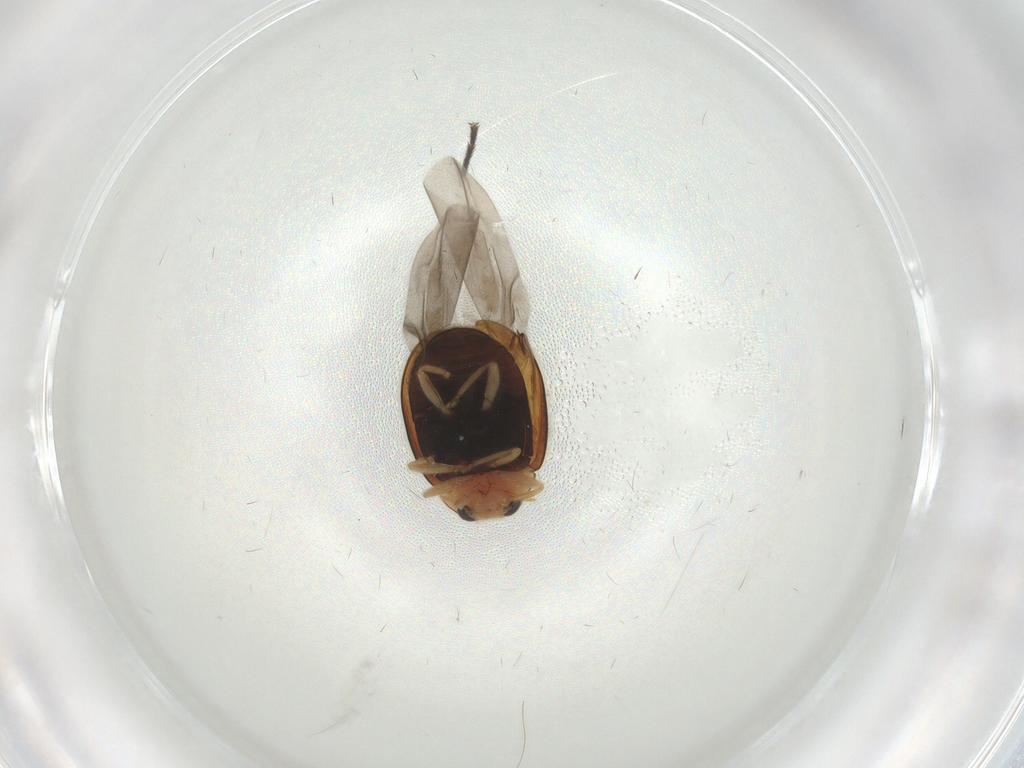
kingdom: Animalia
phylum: Arthropoda
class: Insecta
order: Coleoptera
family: Coccinellidae
